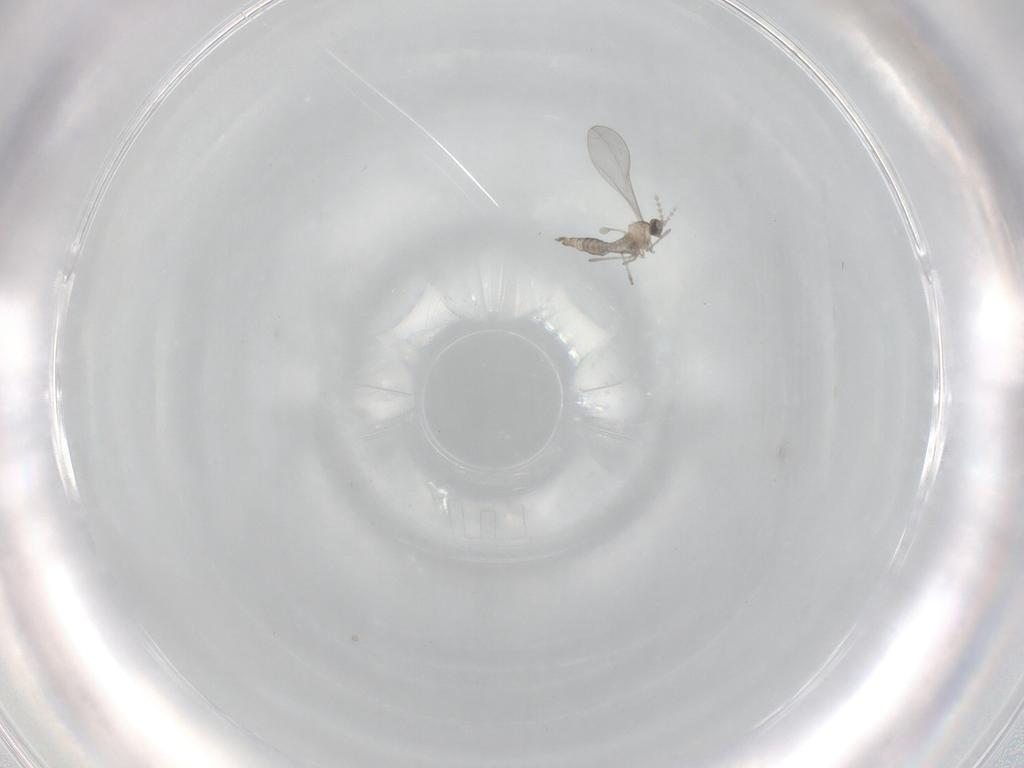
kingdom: Animalia
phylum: Arthropoda
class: Insecta
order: Diptera
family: Cecidomyiidae
